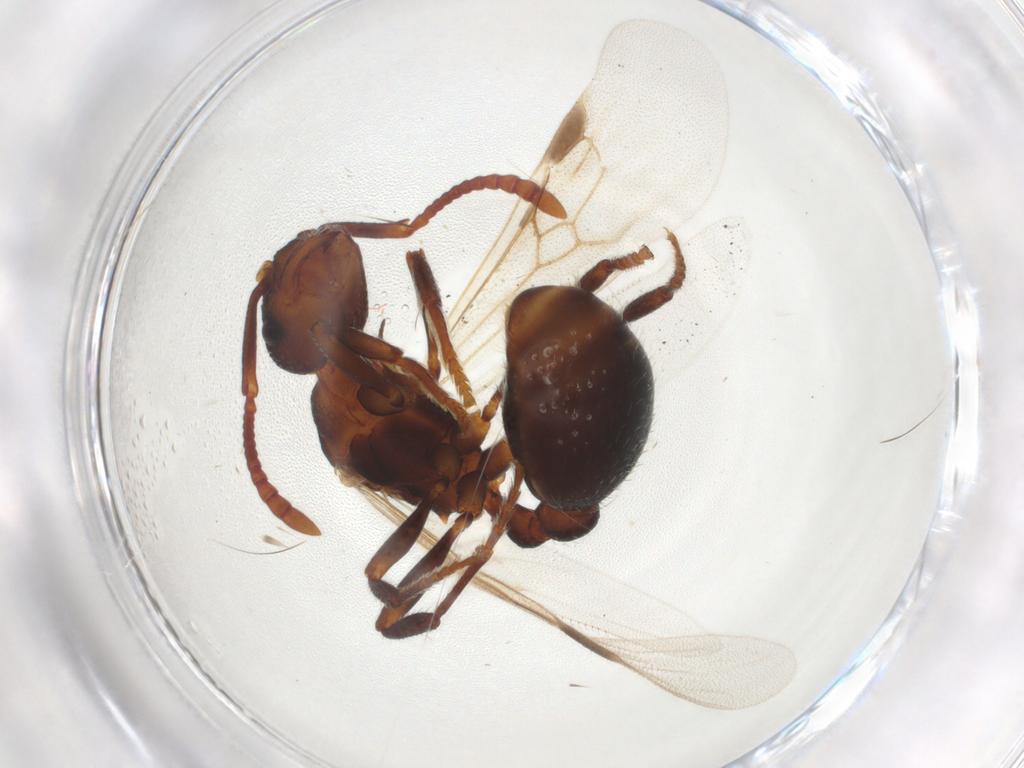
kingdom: Animalia
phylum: Arthropoda
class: Insecta
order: Hymenoptera
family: Formicidae
